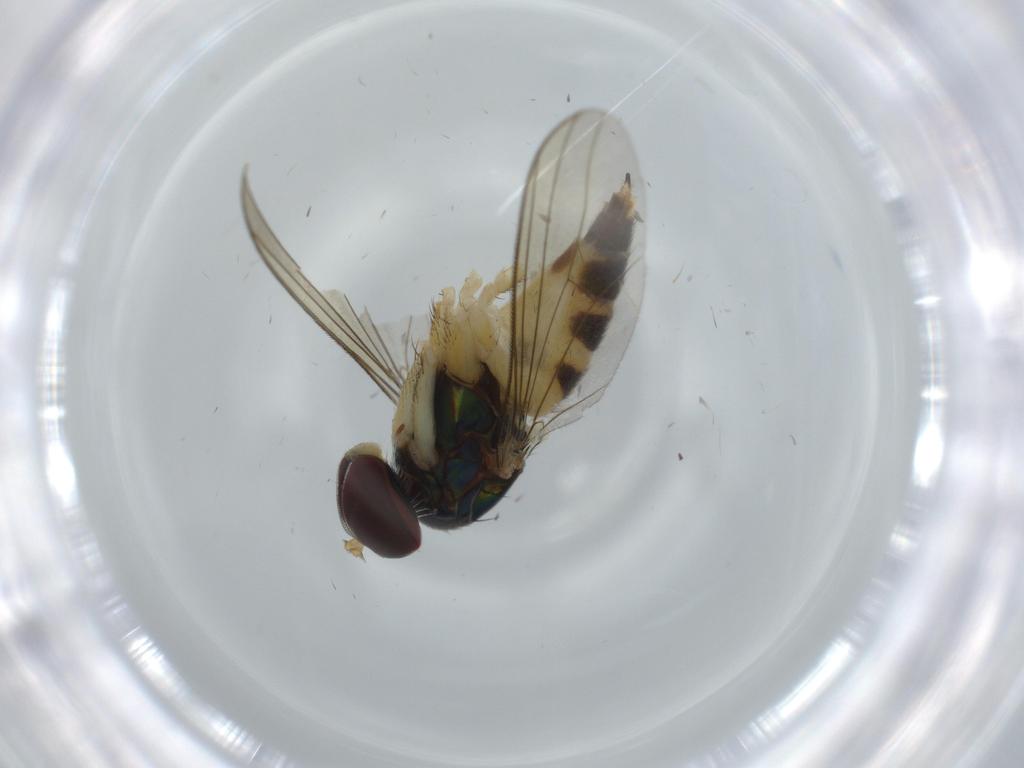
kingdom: Animalia
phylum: Arthropoda
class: Insecta
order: Diptera
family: Dolichopodidae
